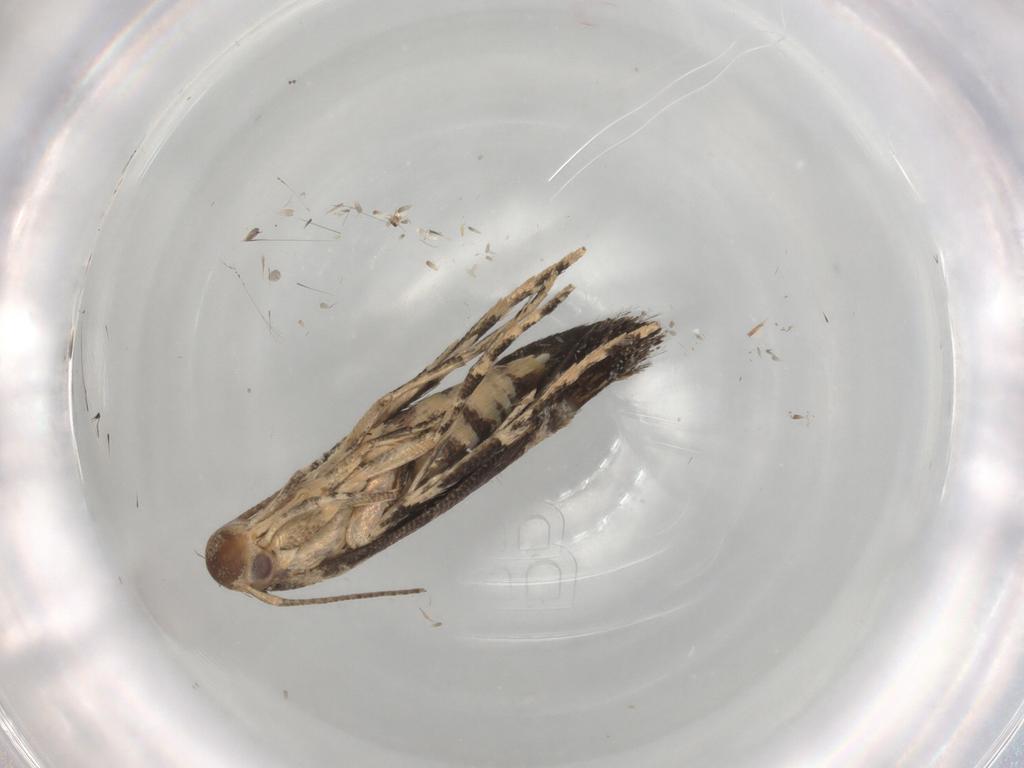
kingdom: Animalia
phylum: Arthropoda
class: Insecta
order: Lepidoptera
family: Momphidae
